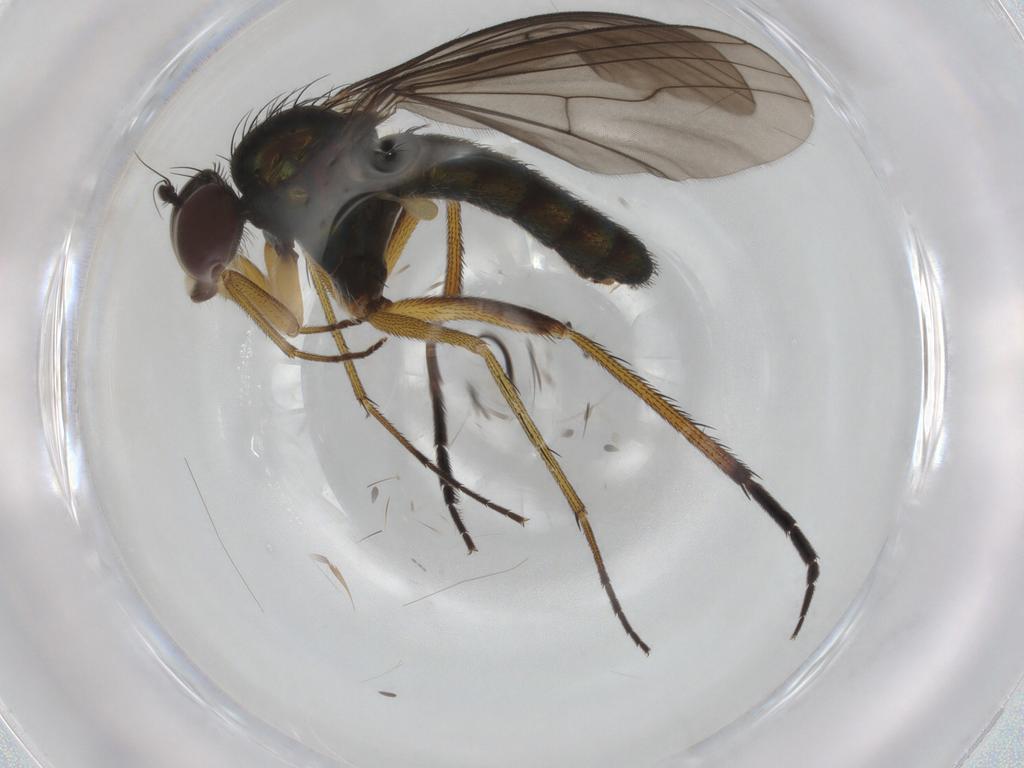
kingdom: Animalia
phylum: Arthropoda
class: Insecta
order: Diptera
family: Dolichopodidae
